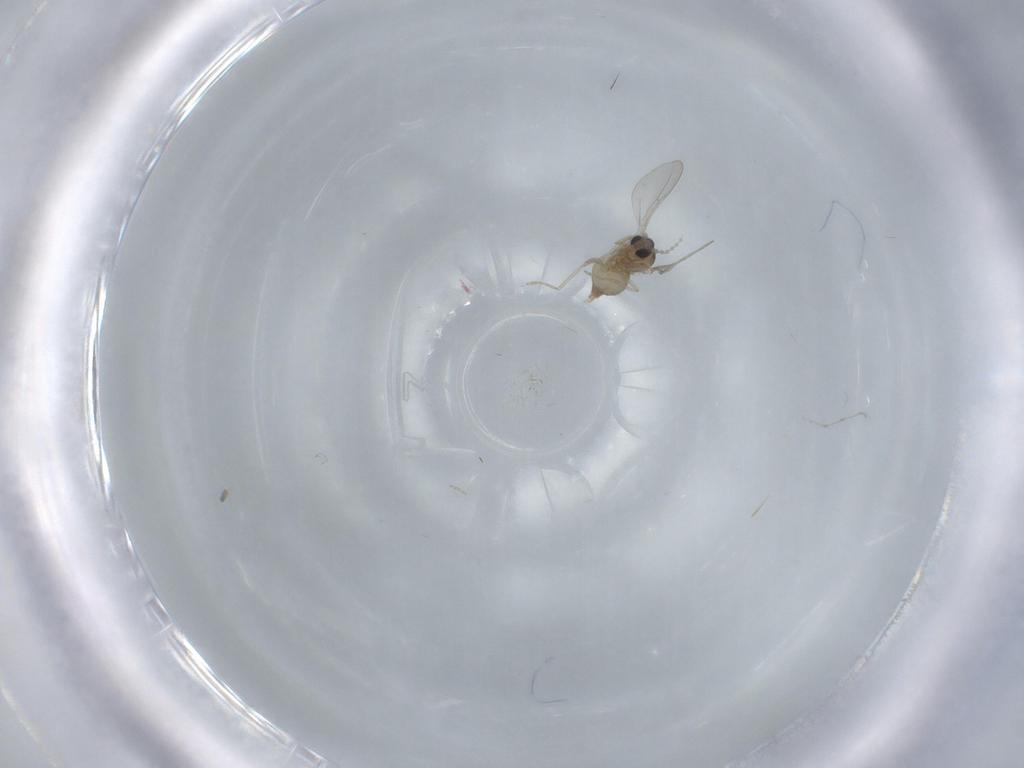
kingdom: Animalia
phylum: Arthropoda
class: Insecta
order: Diptera
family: Cecidomyiidae
